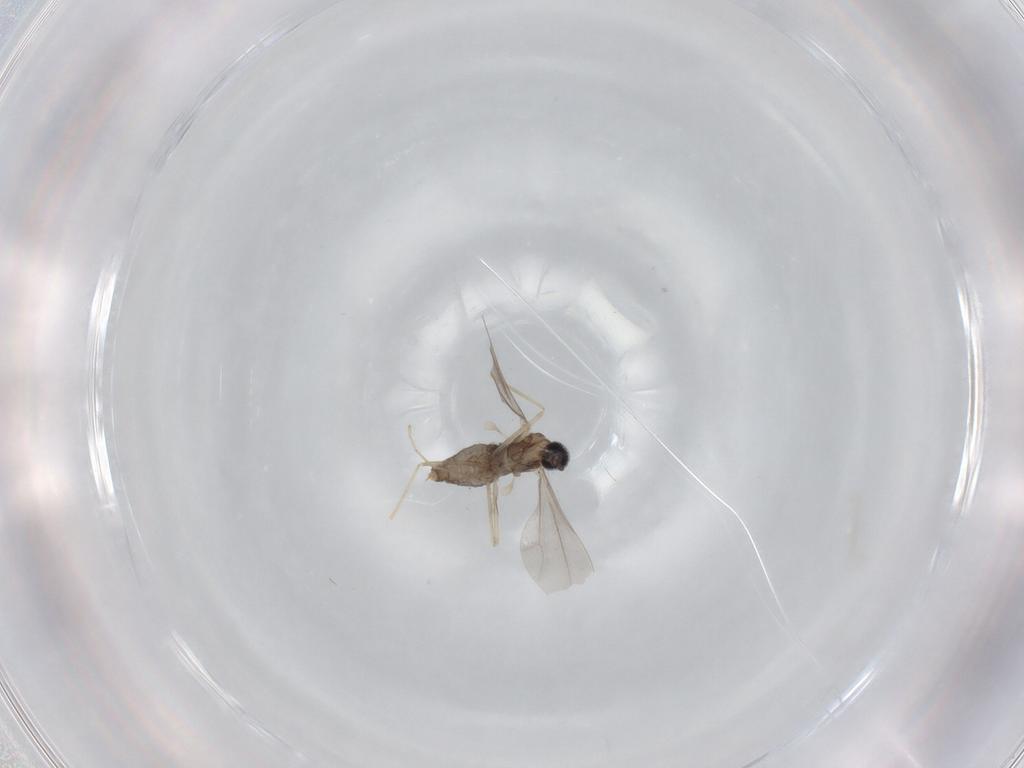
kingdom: Animalia
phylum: Arthropoda
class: Insecta
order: Diptera
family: Cecidomyiidae
